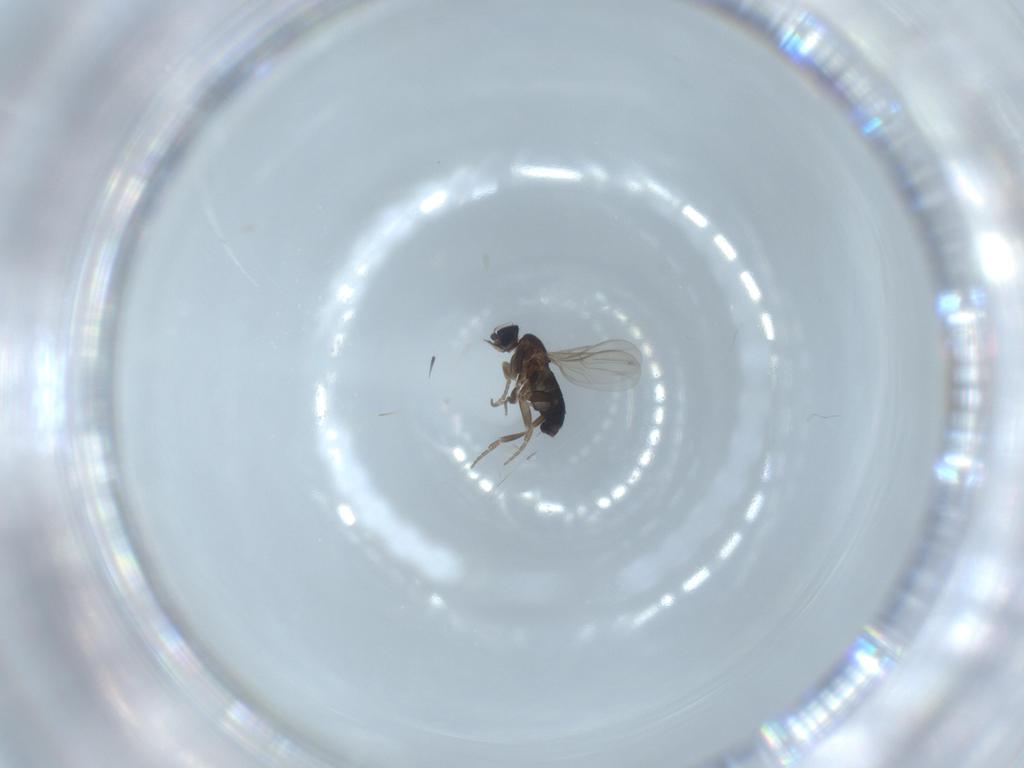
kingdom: Animalia
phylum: Arthropoda
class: Insecta
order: Diptera
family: Phoridae
